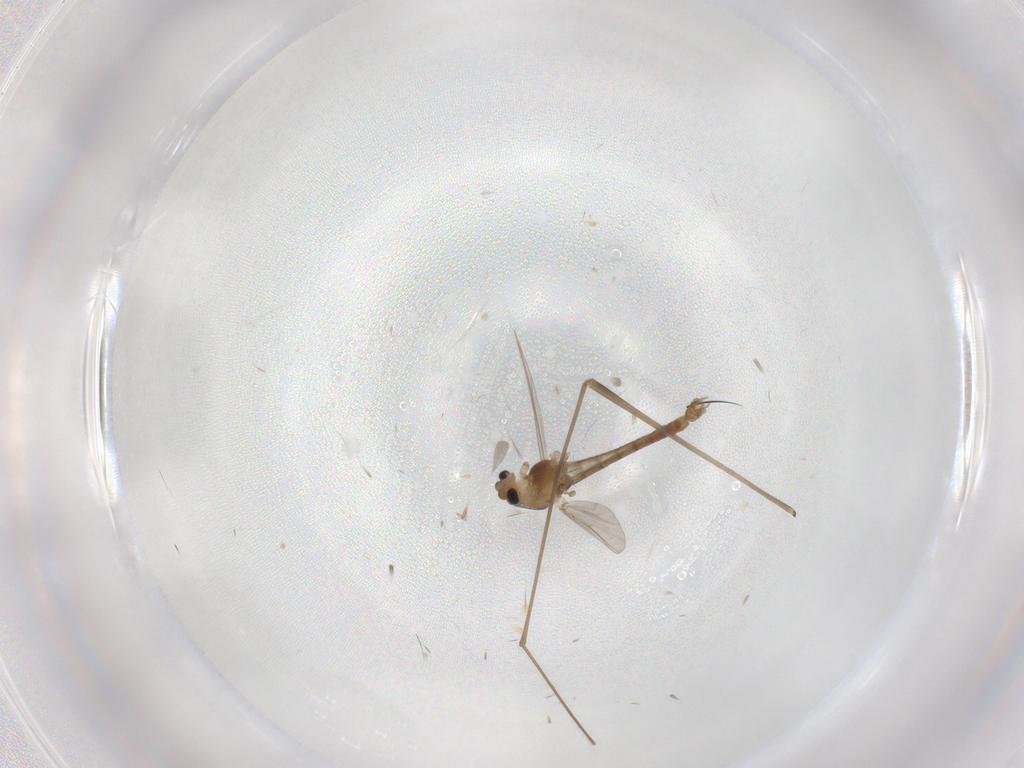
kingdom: Animalia
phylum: Arthropoda
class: Insecta
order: Diptera
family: Chironomidae
